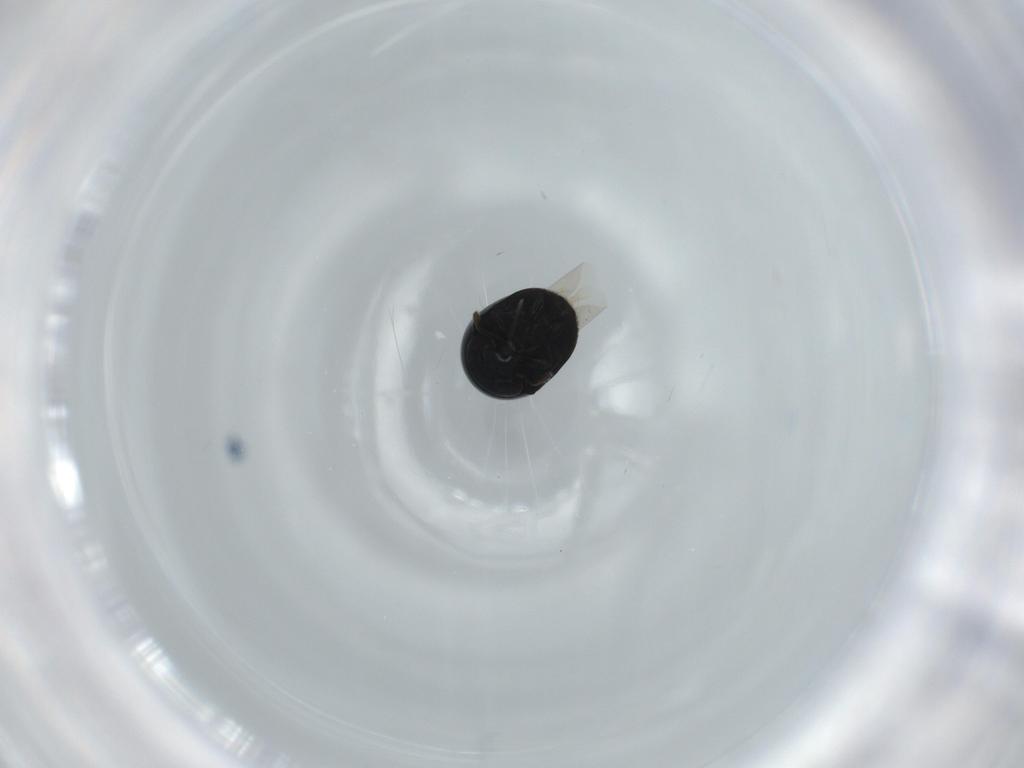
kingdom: Animalia
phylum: Arthropoda
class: Insecta
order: Coleoptera
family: Cybocephalidae
